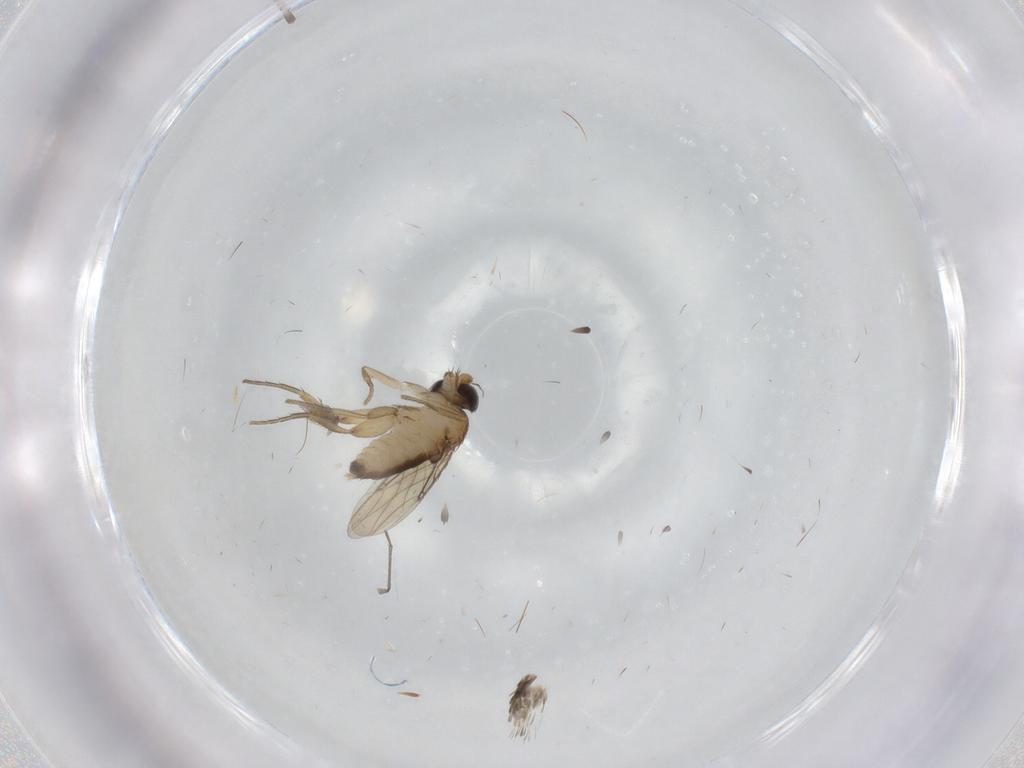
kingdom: Animalia
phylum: Arthropoda
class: Insecta
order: Diptera
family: Phoridae
